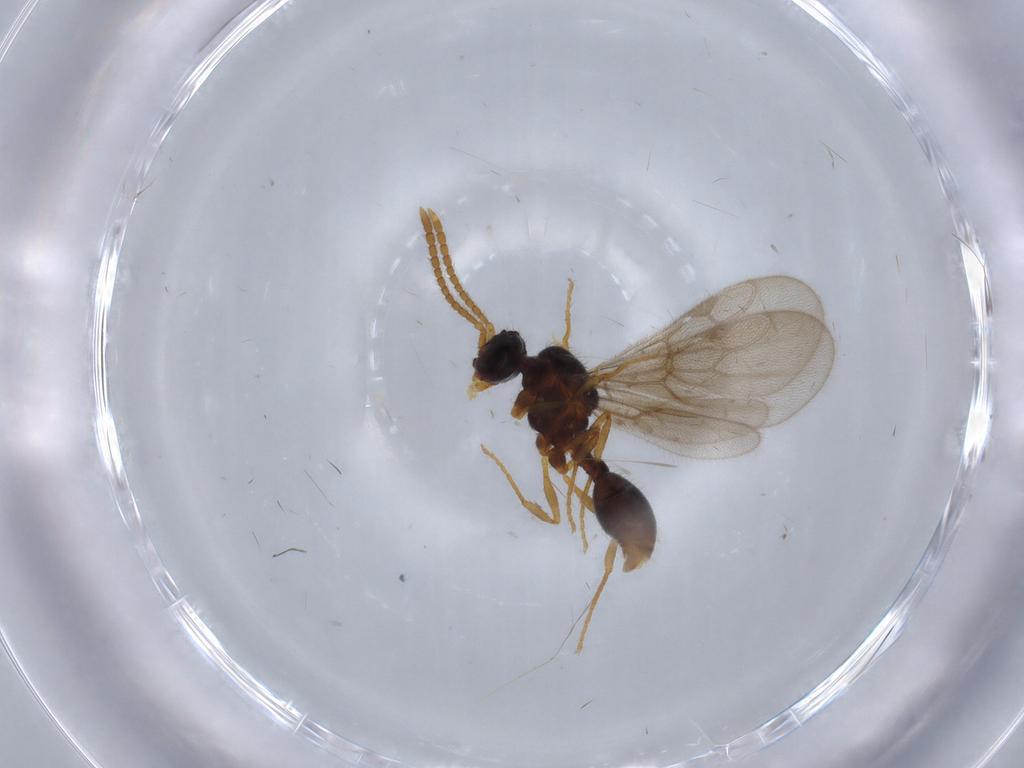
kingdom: Animalia
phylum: Arthropoda
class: Insecta
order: Hymenoptera
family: Formicidae
